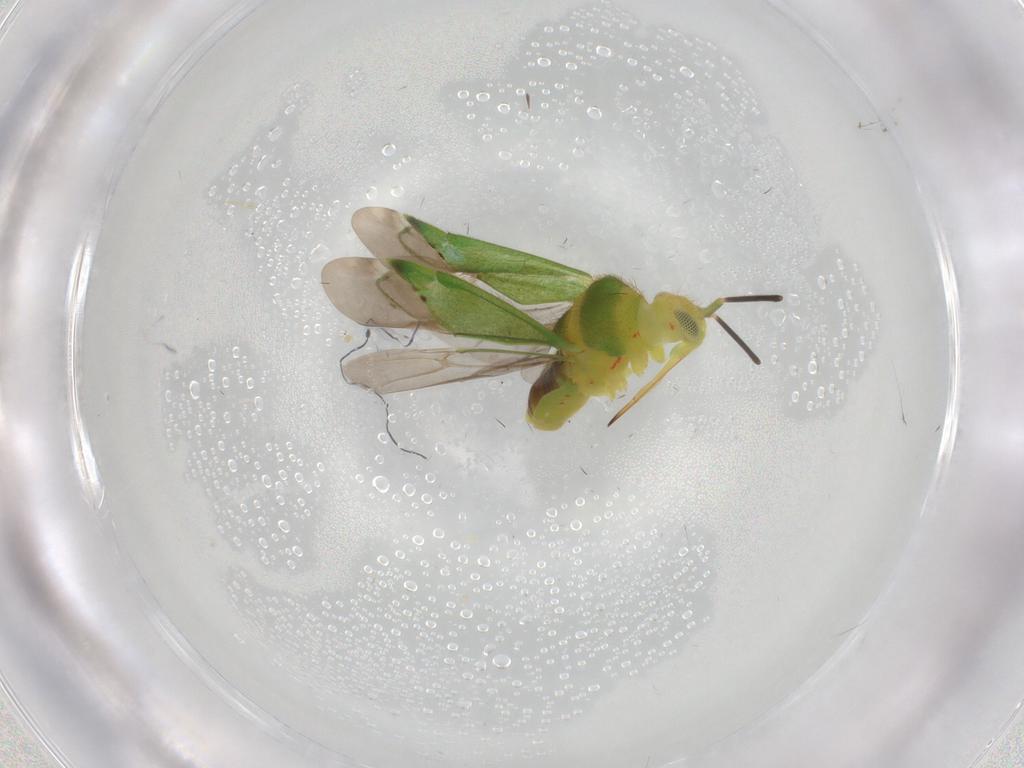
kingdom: Animalia
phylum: Arthropoda
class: Insecta
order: Hemiptera
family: Miridae
